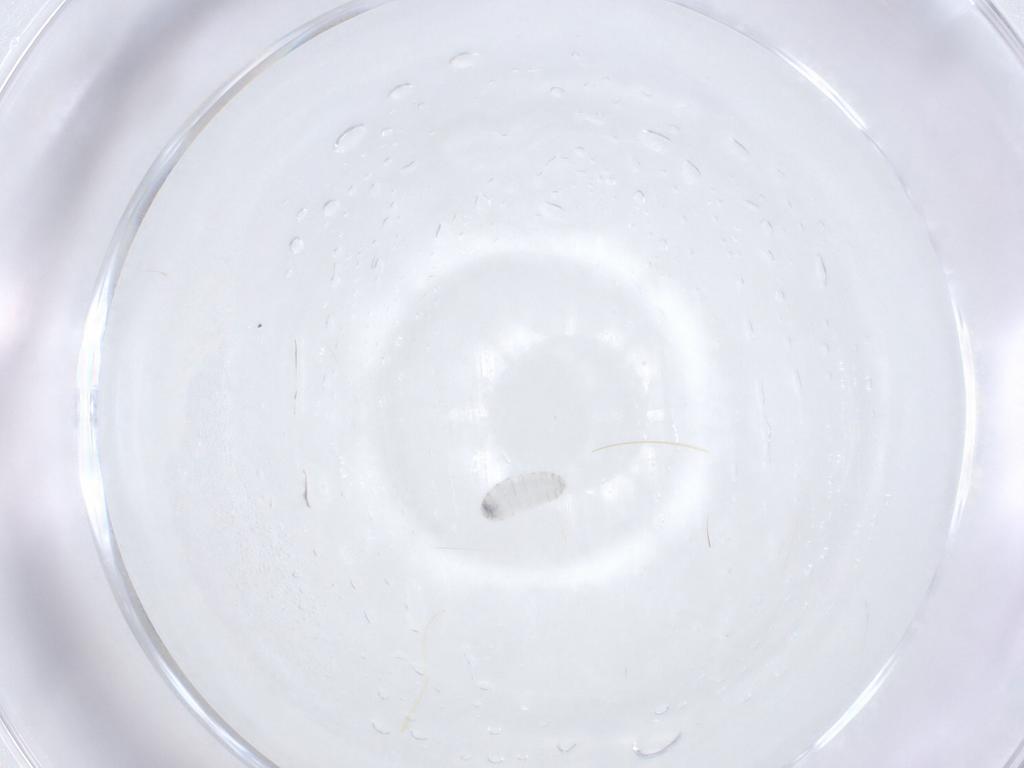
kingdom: Animalia
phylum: Arthropoda
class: Insecta
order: Diptera
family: Tachinidae
